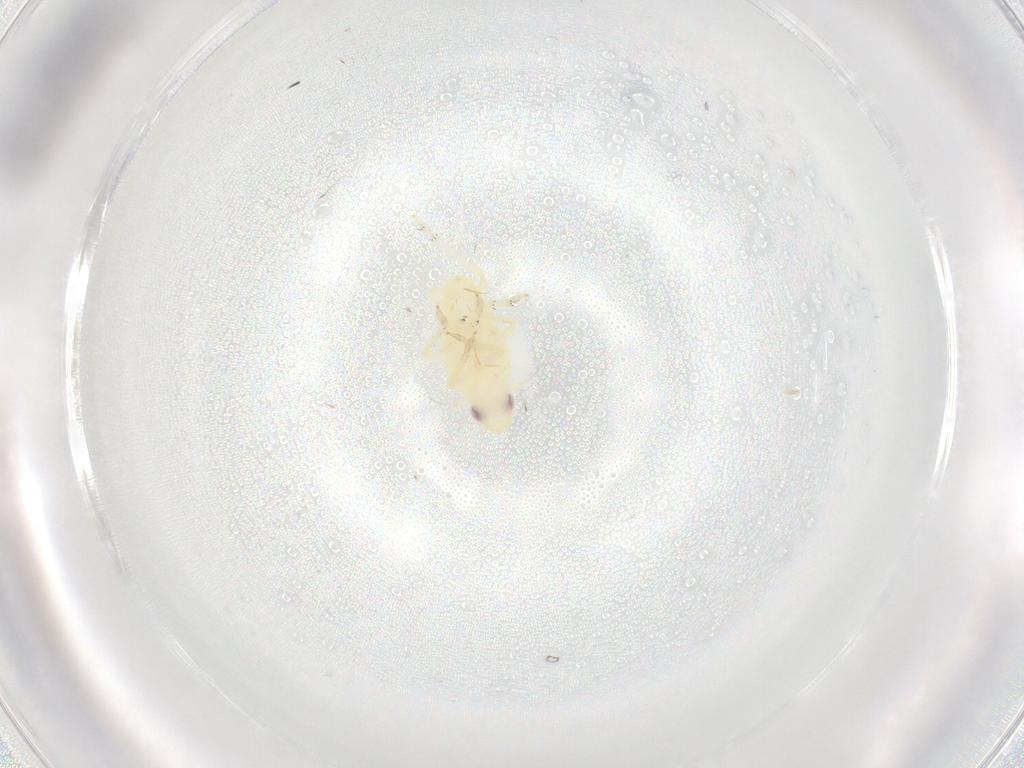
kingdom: Animalia
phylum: Arthropoda
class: Insecta
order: Hemiptera
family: Tropiduchidae
